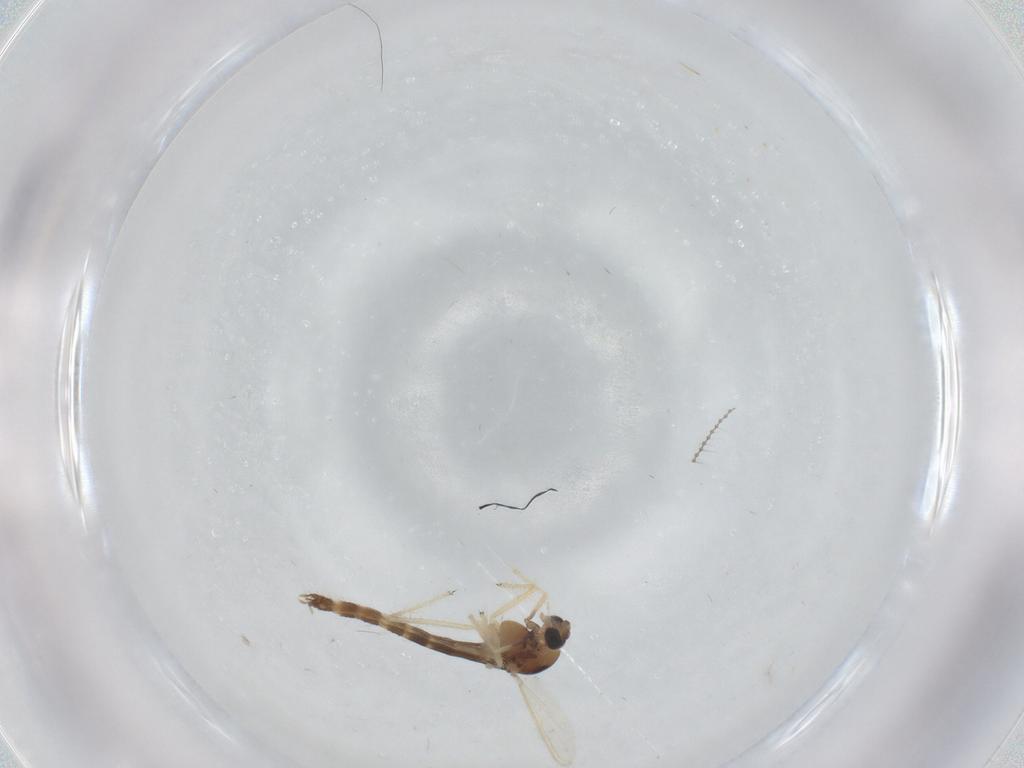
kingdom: Animalia
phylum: Arthropoda
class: Insecta
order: Diptera
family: Chironomidae
